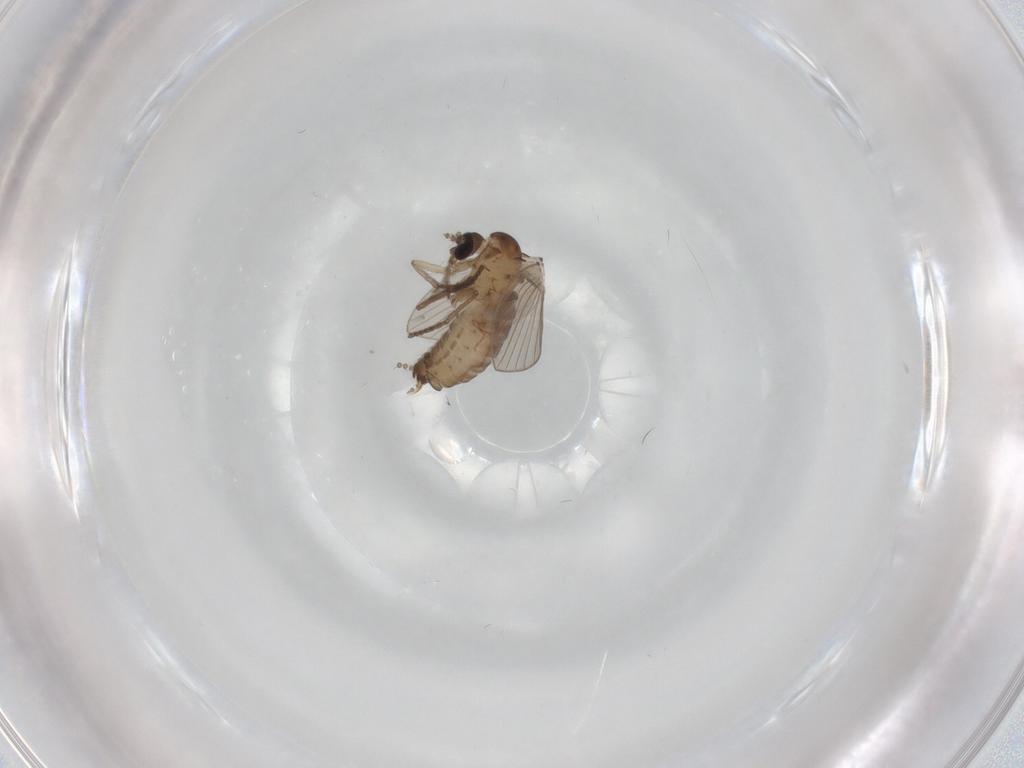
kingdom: Animalia
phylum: Arthropoda
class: Insecta
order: Diptera
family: Psychodidae
